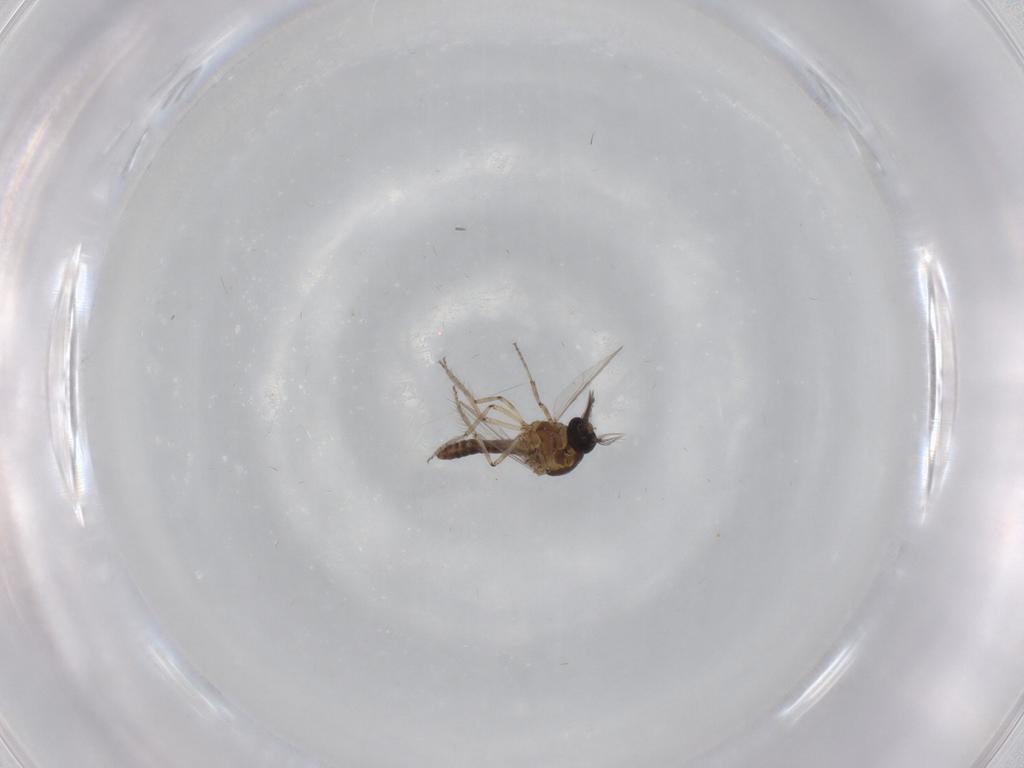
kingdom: Animalia
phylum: Arthropoda
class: Insecta
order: Diptera
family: Ceratopogonidae
